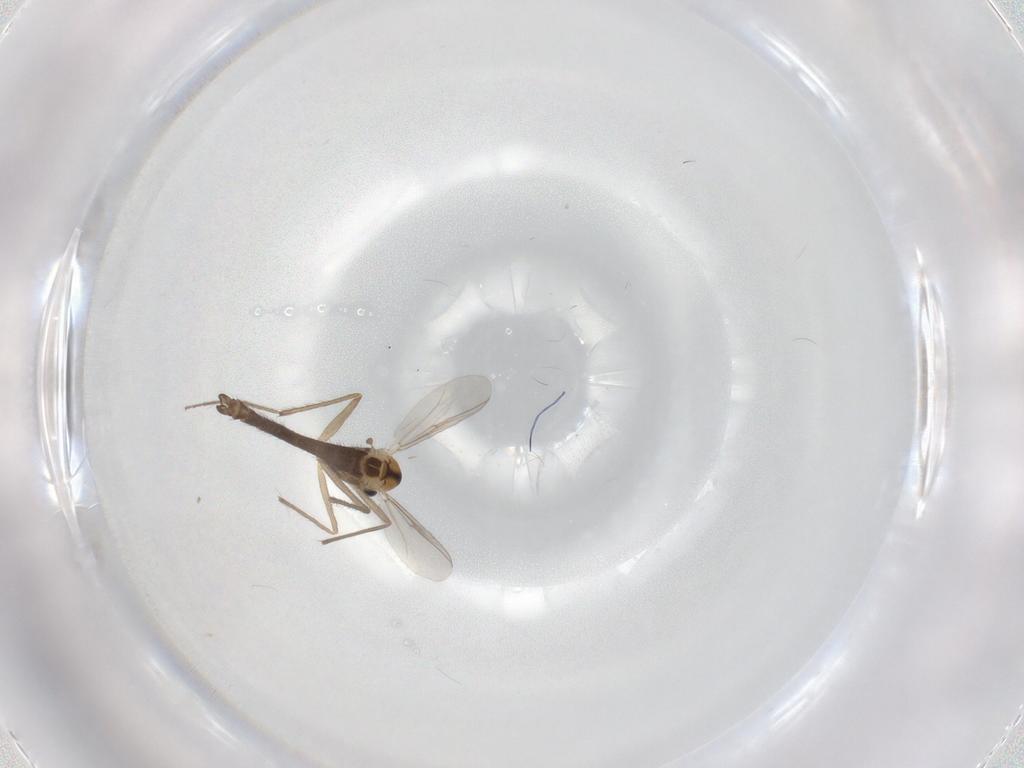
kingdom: Animalia
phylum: Arthropoda
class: Insecta
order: Diptera
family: Chironomidae
